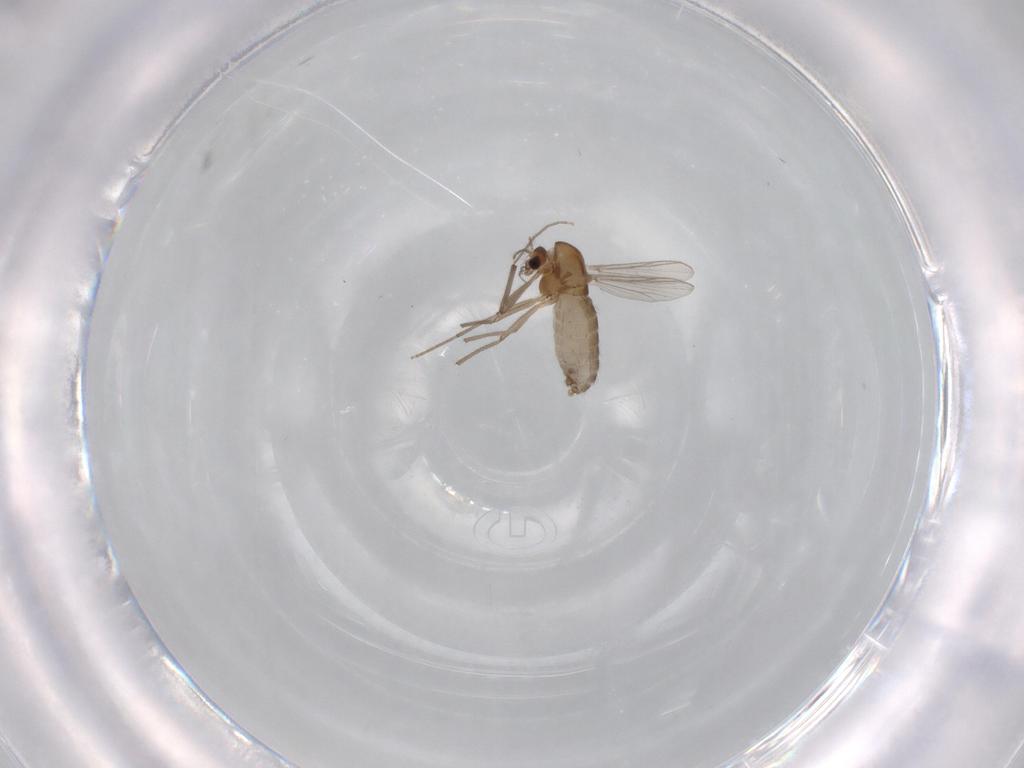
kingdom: Animalia
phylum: Arthropoda
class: Insecta
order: Diptera
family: Chironomidae
